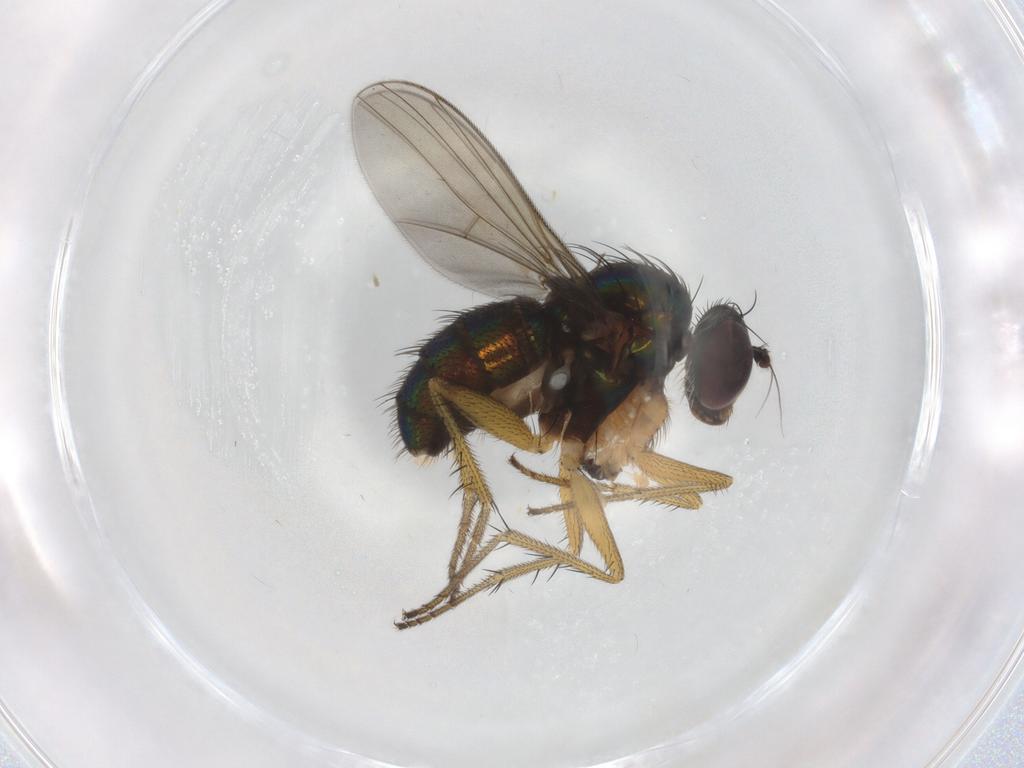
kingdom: Animalia
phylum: Arthropoda
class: Insecta
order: Diptera
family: Dolichopodidae
